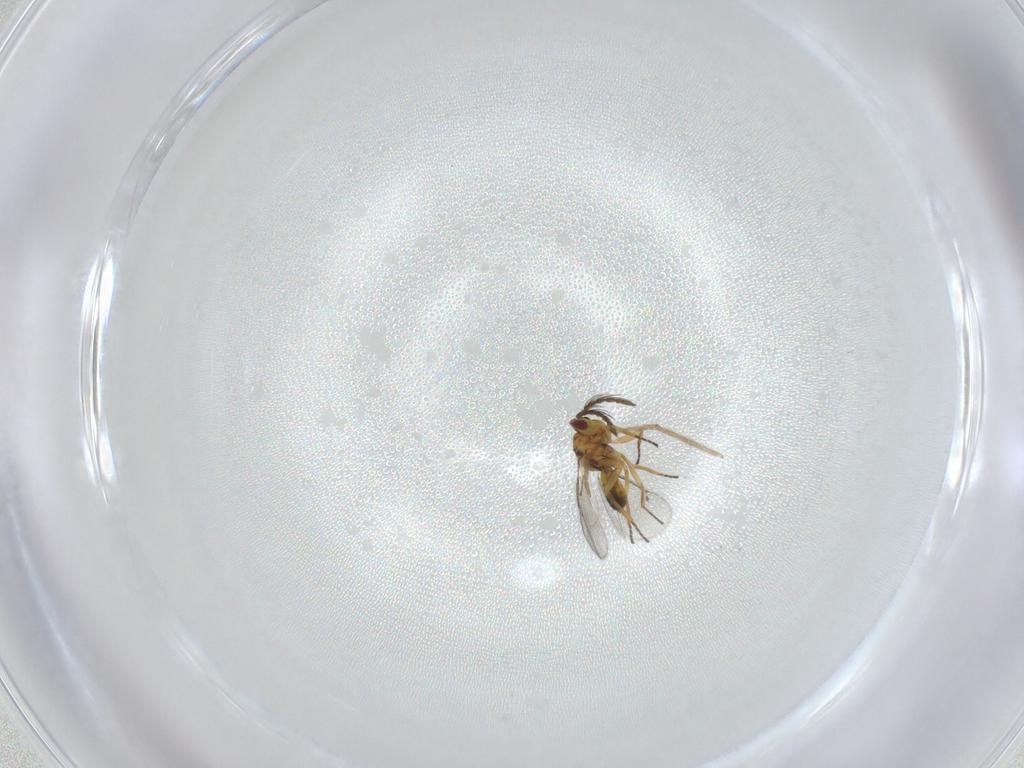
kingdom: Animalia
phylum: Arthropoda
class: Insecta
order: Hymenoptera
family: Eulophidae
